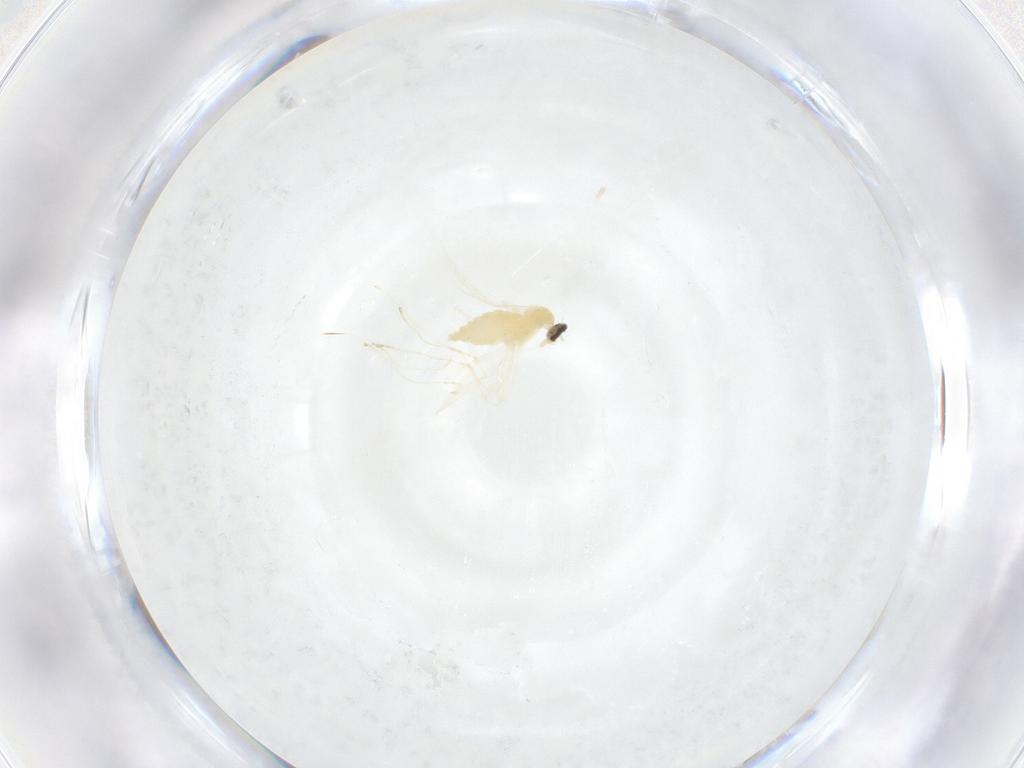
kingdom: Animalia
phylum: Arthropoda
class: Insecta
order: Diptera
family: Cecidomyiidae
